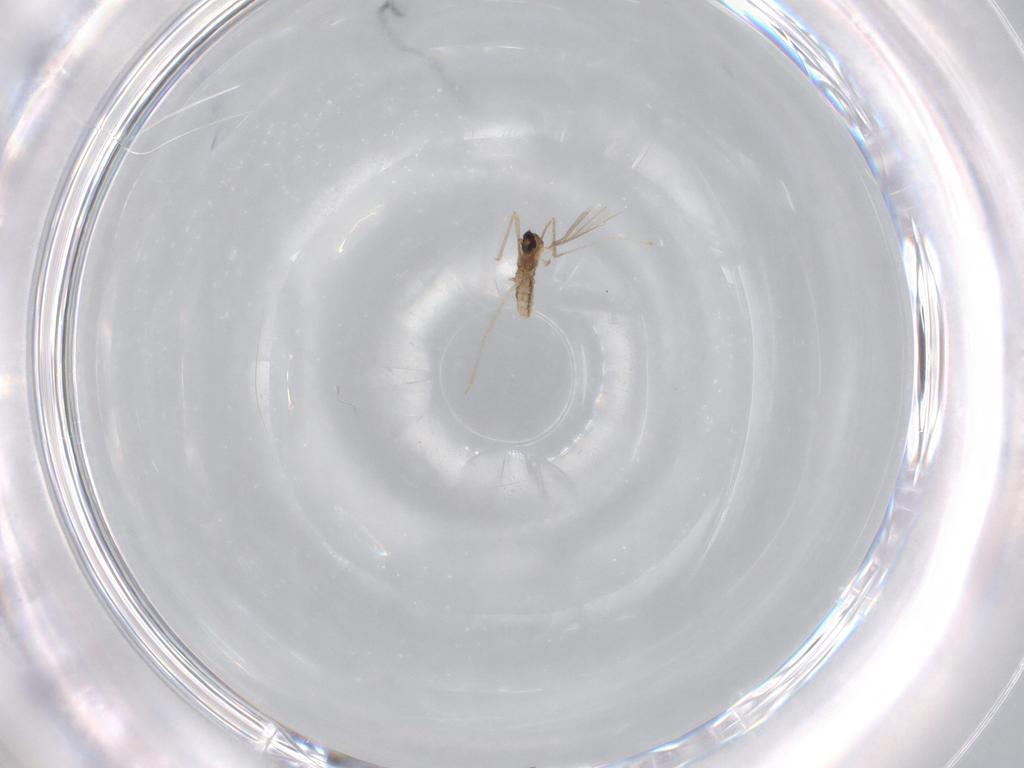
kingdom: Animalia
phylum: Arthropoda
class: Insecta
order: Diptera
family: Cecidomyiidae
